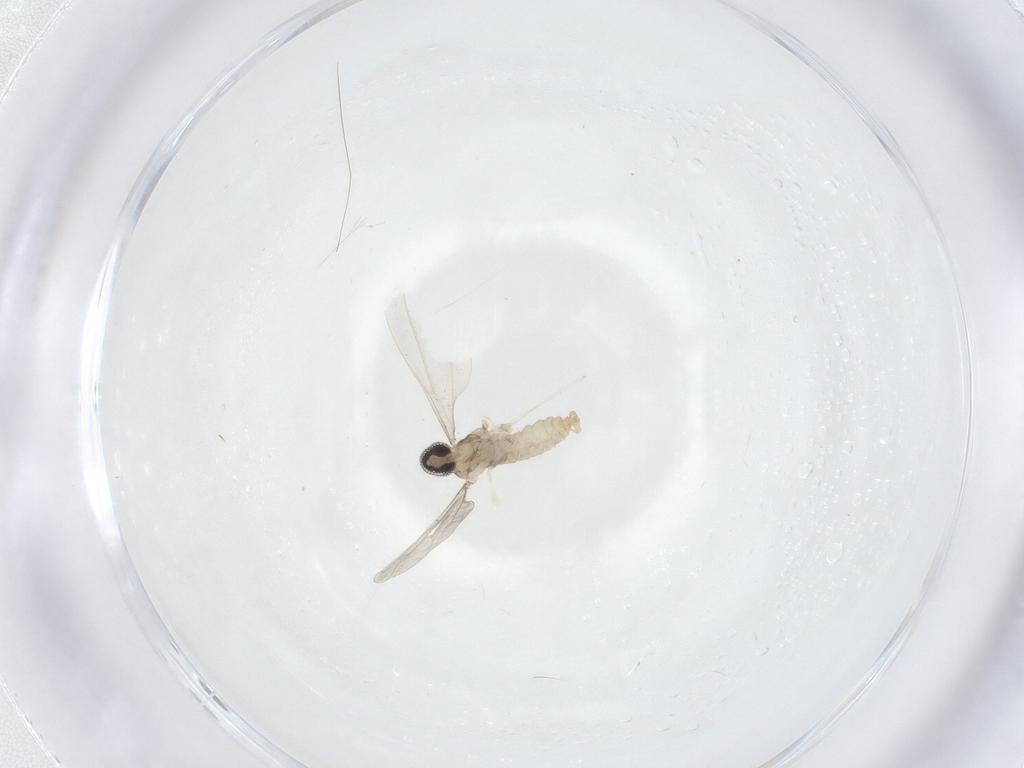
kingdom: Animalia
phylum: Arthropoda
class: Insecta
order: Diptera
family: Cecidomyiidae
